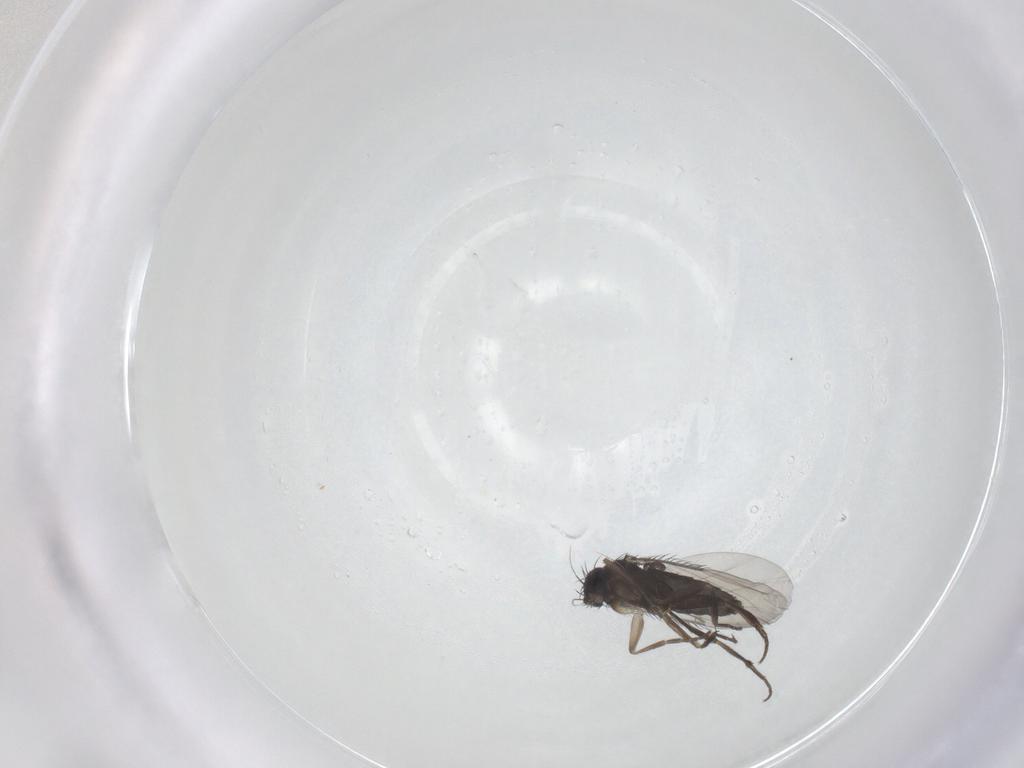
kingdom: Animalia
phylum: Arthropoda
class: Insecta
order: Diptera
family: Phoridae
